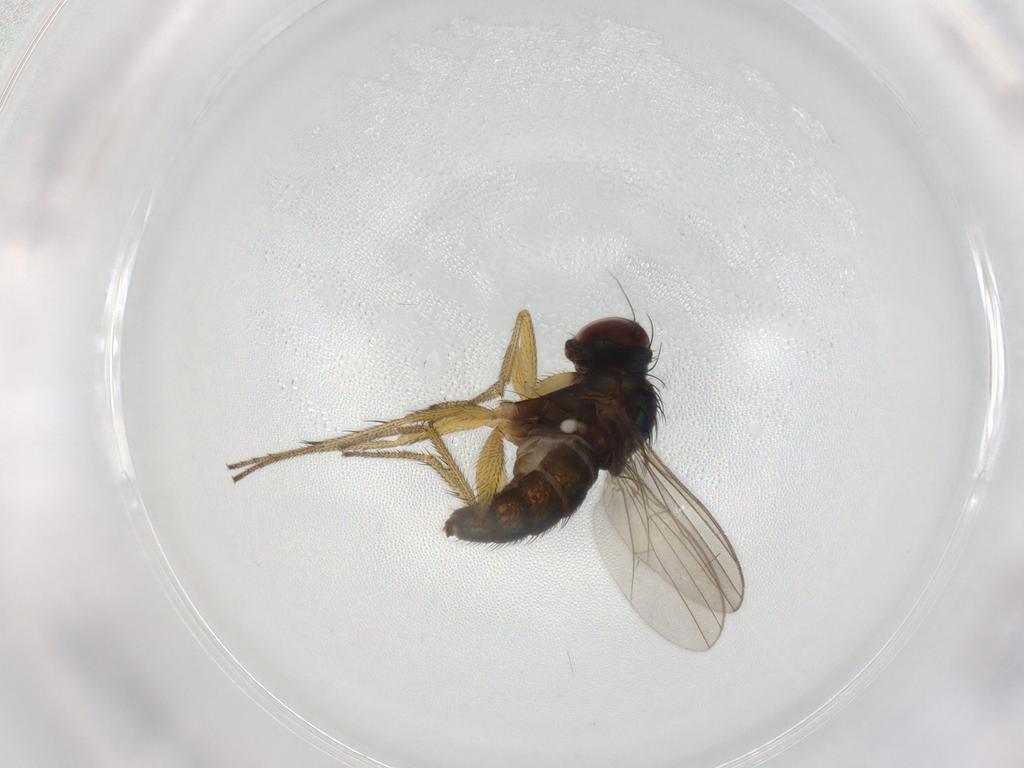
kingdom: Animalia
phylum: Arthropoda
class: Insecta
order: Diptera
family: Dolichopodidae
